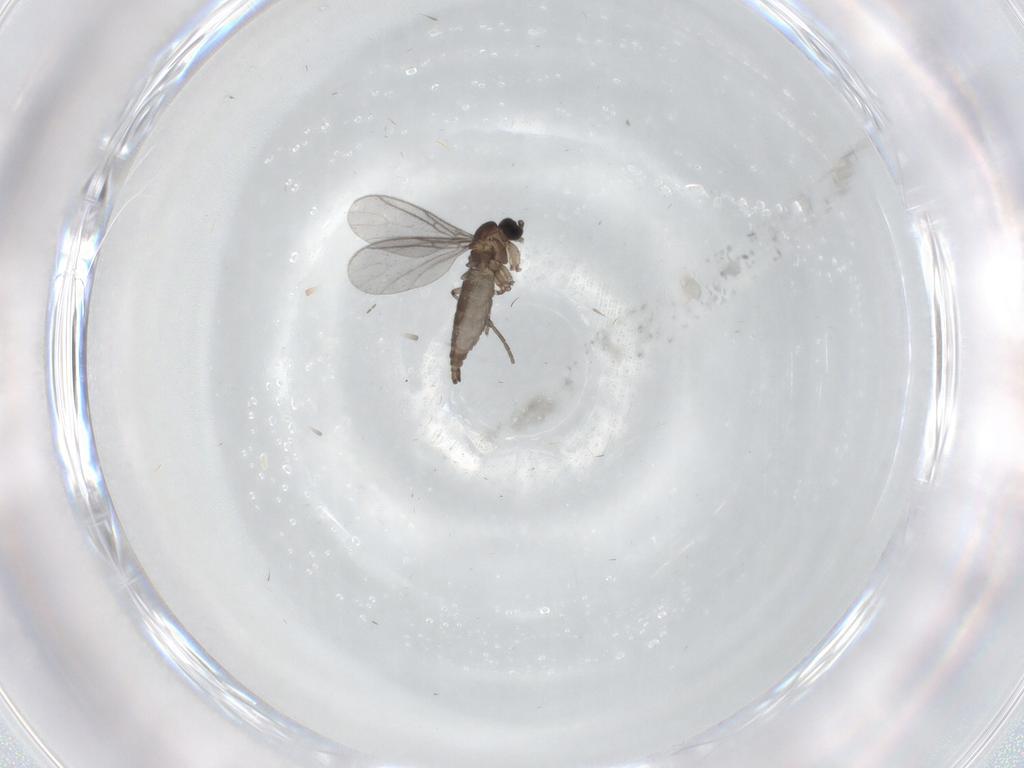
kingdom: Animalia
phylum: Arthropoda
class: Insecta
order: Diptera
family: Sciaridae
